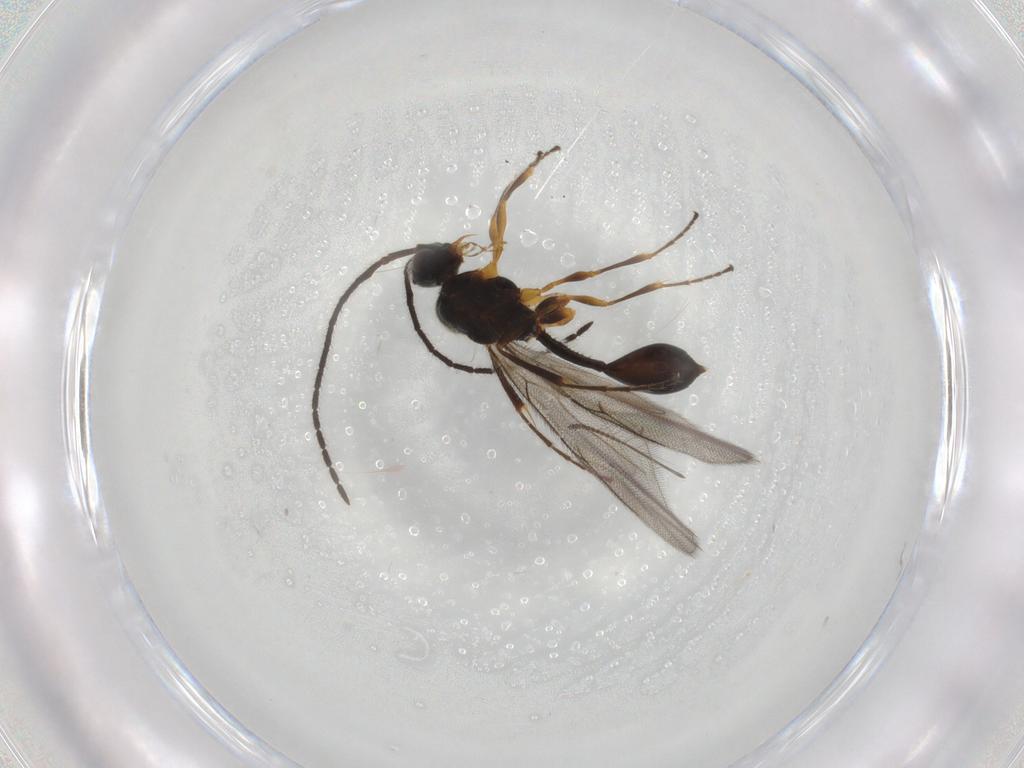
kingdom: Animalia
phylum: Arthropoda
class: Insecta
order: Hymenoptera
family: Diapriidae
